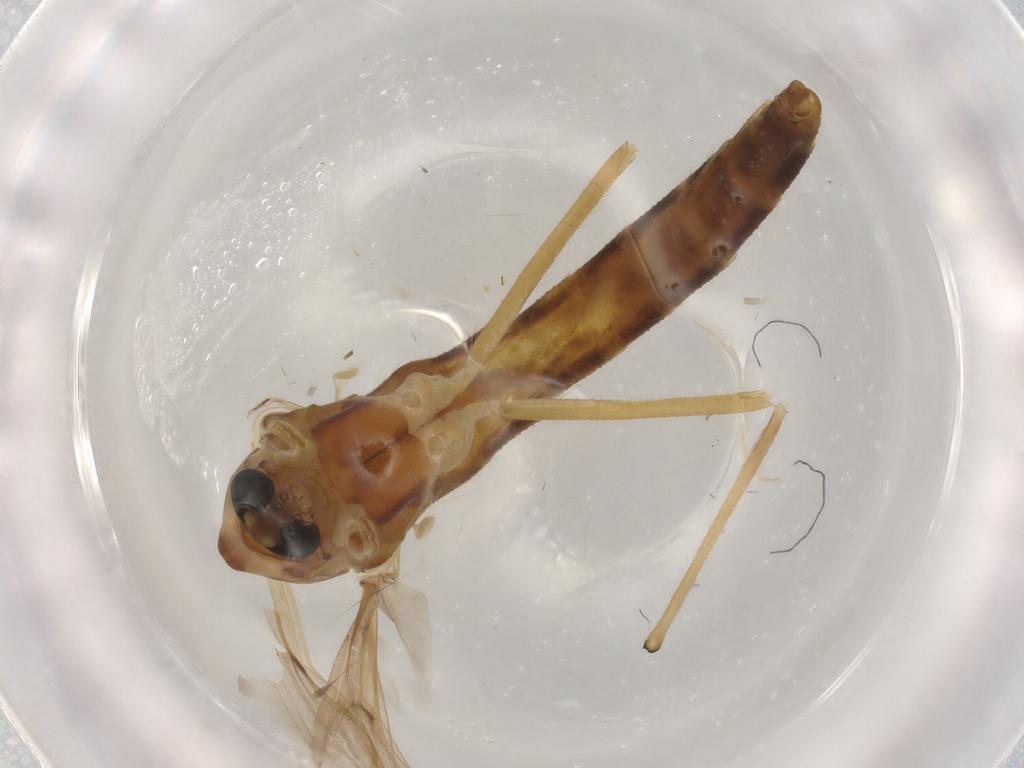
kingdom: Animalia
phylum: Arthropoda
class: Insecta
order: Diptera
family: Chironomidae
